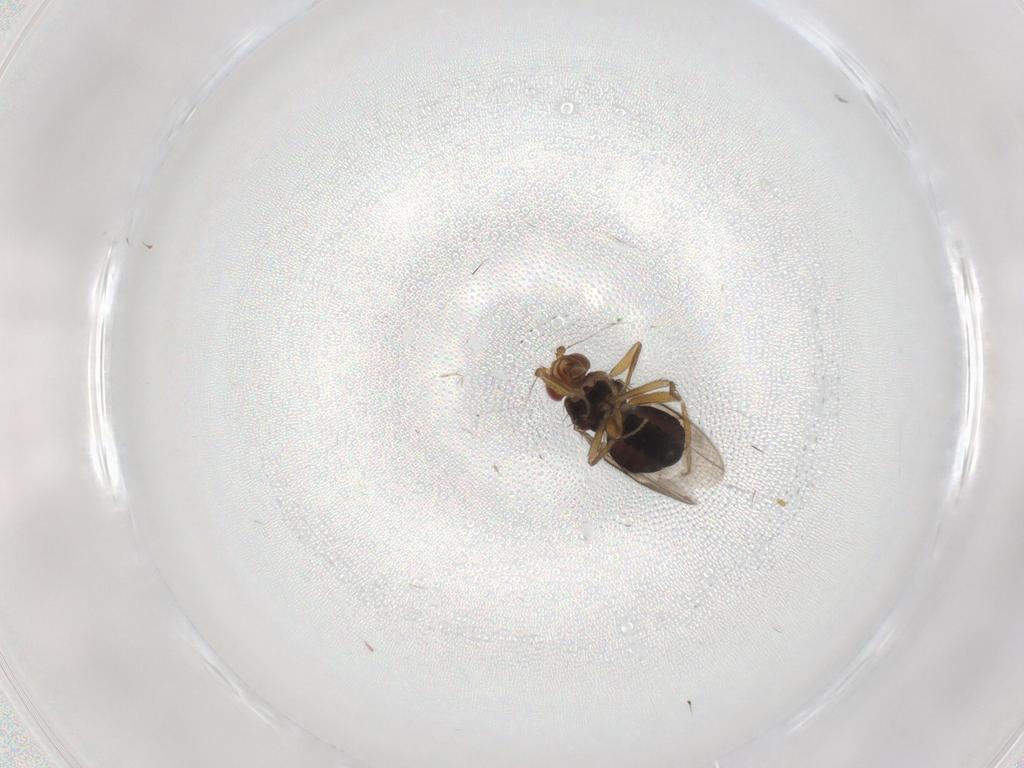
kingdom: Animalia
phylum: Arthropoda
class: Insecta
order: Diptera
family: Sphaeroceridae
